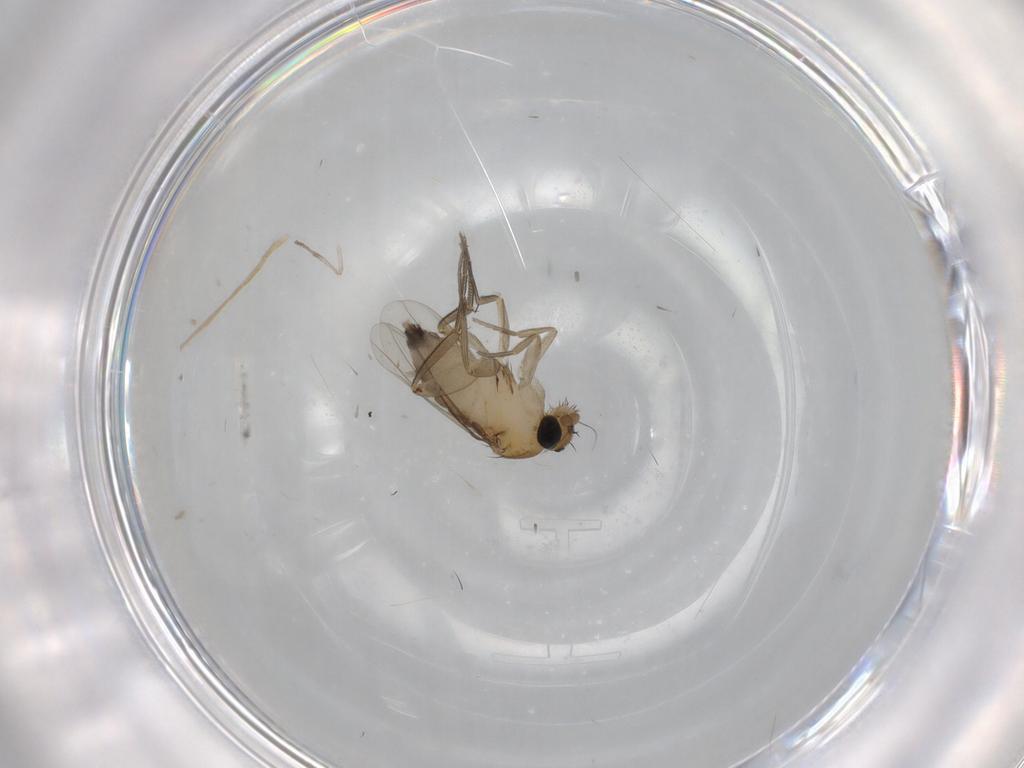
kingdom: Animalia
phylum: Arthropoda
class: Insecta
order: Diptera
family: Phoridae
